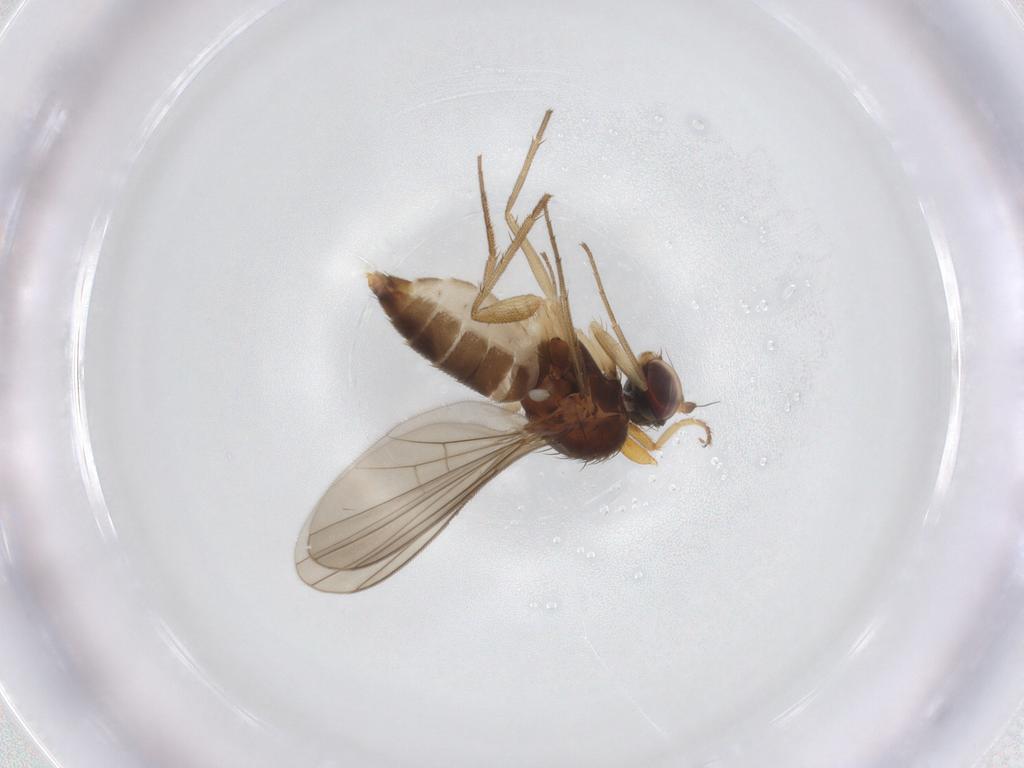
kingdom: Animalia
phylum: Arthropoda
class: Insecta
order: Diptera
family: Dolichopodidae
